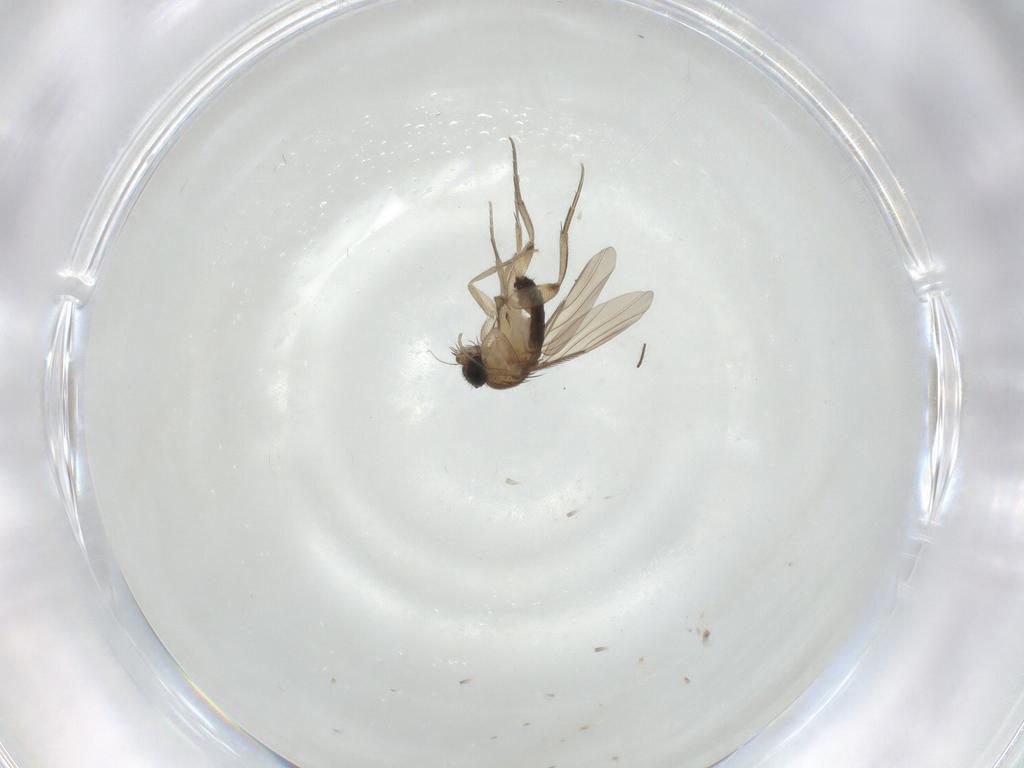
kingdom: Animalia
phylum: Arthropoda
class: Insecta
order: Diptera
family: Phoridae
